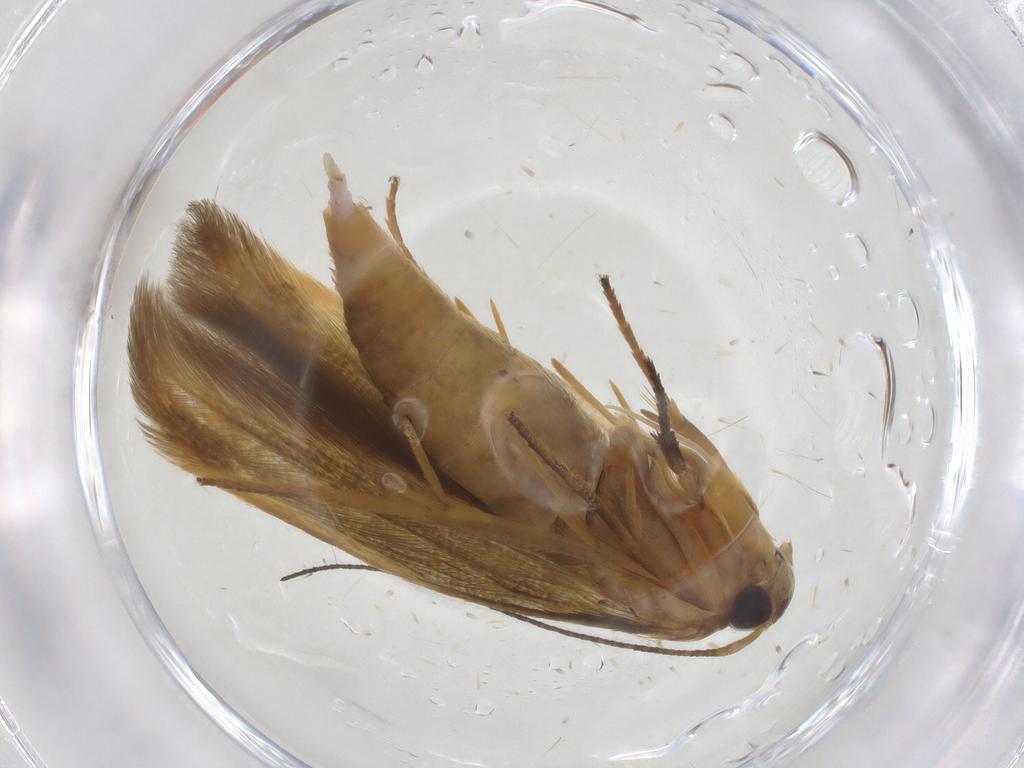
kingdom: Animalia
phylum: Arthropoda
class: Insecta
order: Lepidoptera
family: Stathmopodidae
